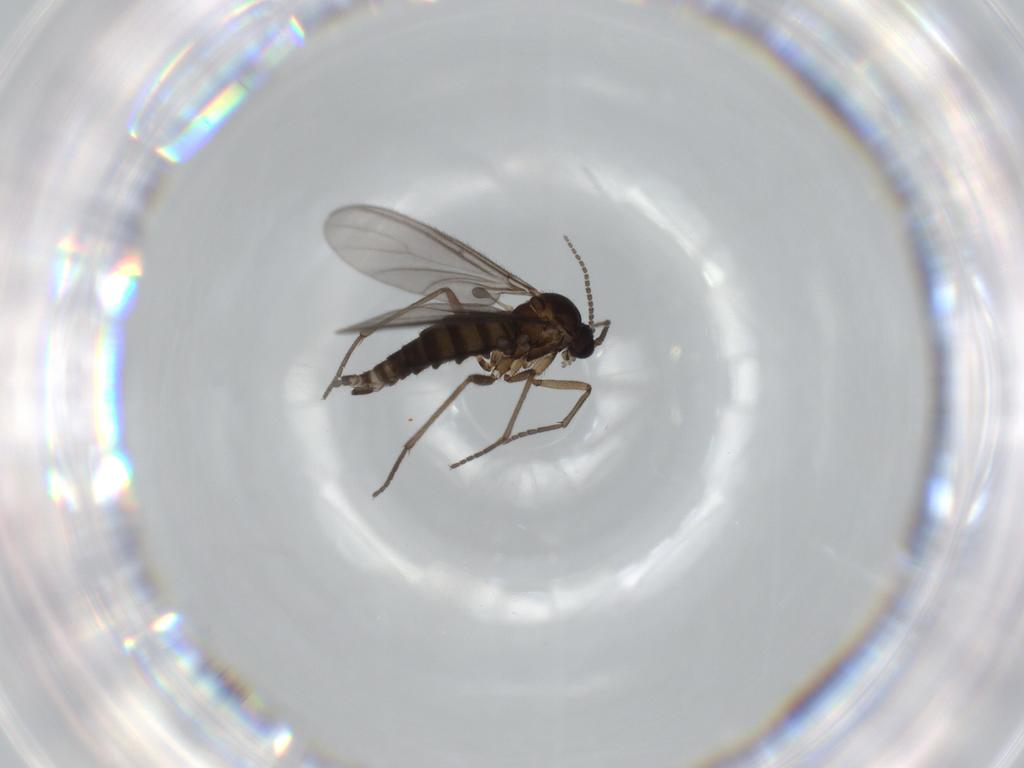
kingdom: Animalia
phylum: Arthropoda
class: Insecta
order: Diptera
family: Sciaridae
